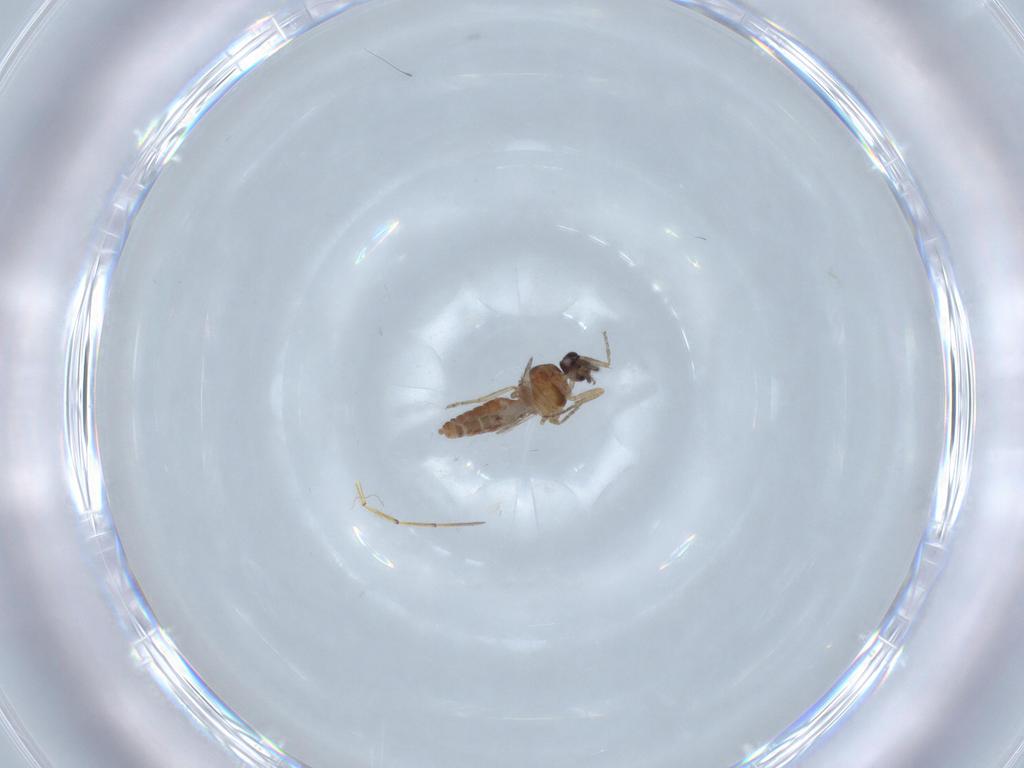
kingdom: Animalia
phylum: Arthropoda
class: Insecta
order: Diptera
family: Ceratopogonidae
